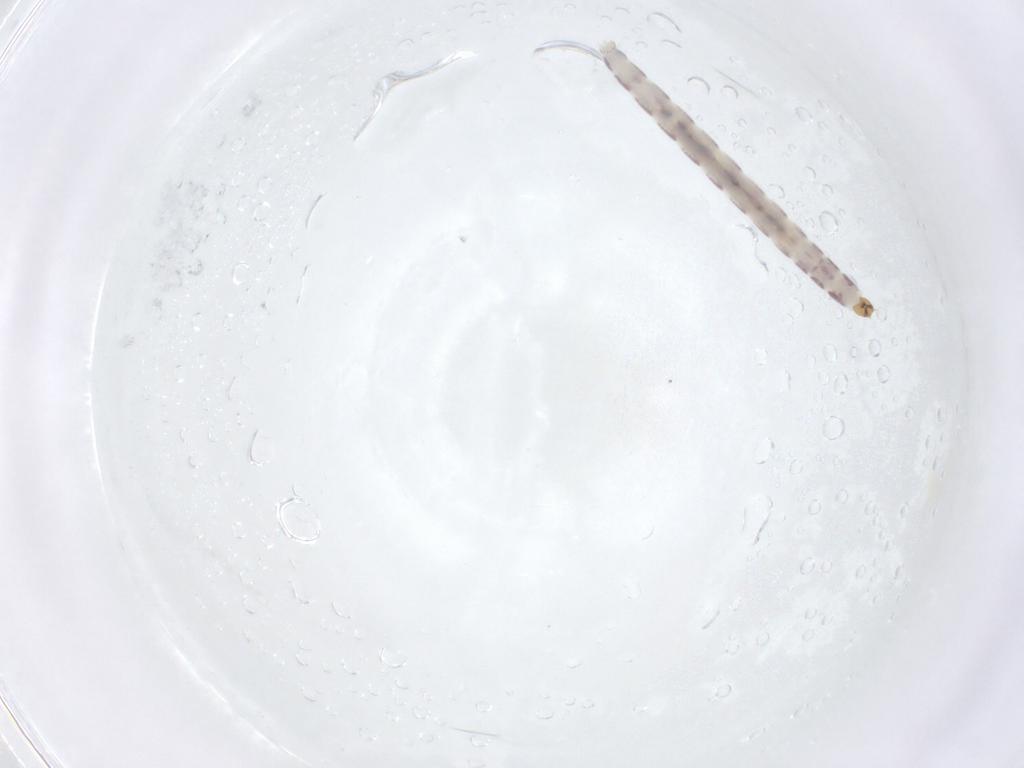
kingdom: Animalia
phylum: Arthropoda
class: Insecta
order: Diptera
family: Chironomidae
